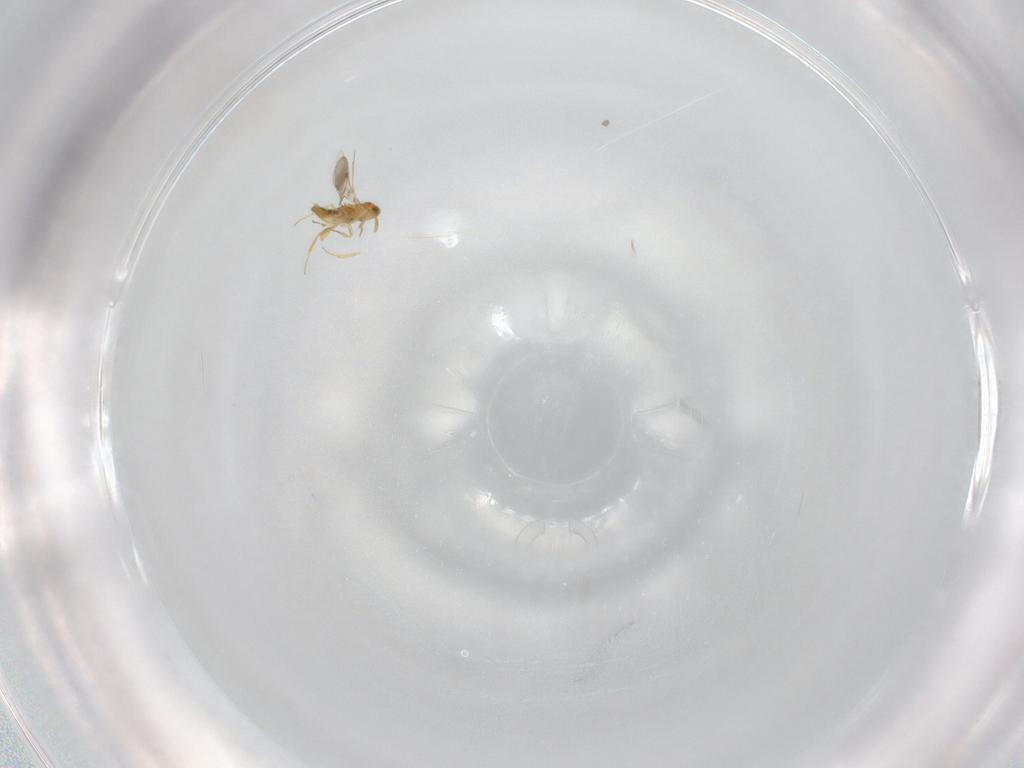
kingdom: Animalia
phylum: Arthropoda
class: Insecta
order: Hymenoptera
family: Aphelinidae
